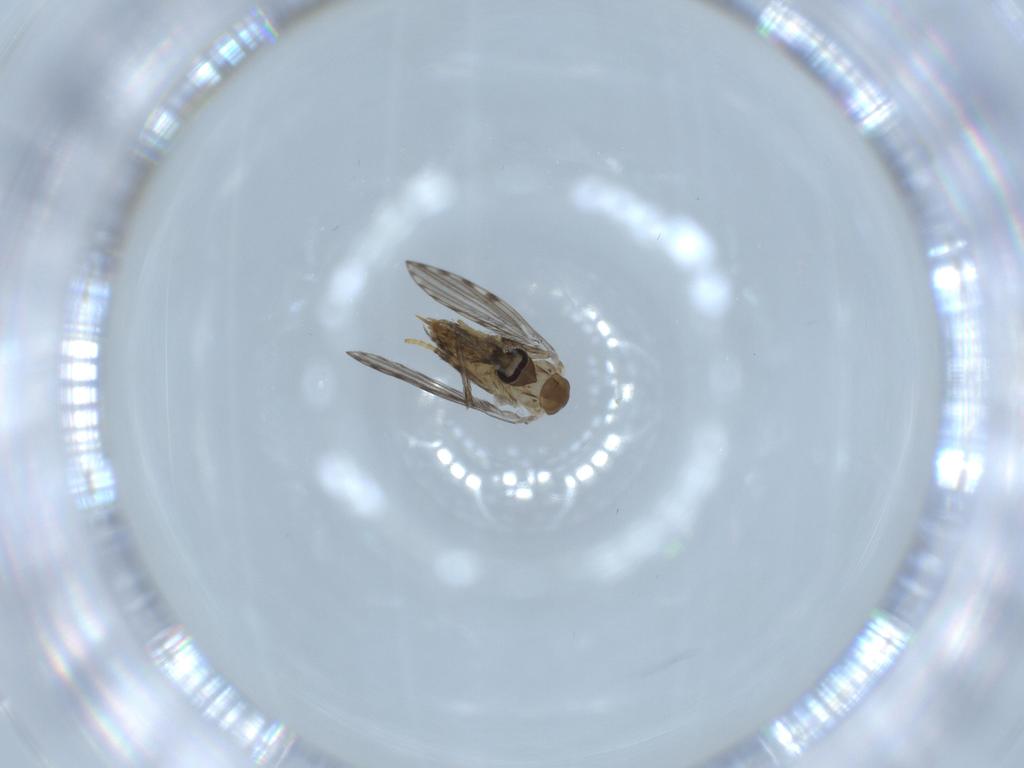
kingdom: Animalia
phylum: Arthropoda
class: Insecta
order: Diptera
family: Psychodidae
